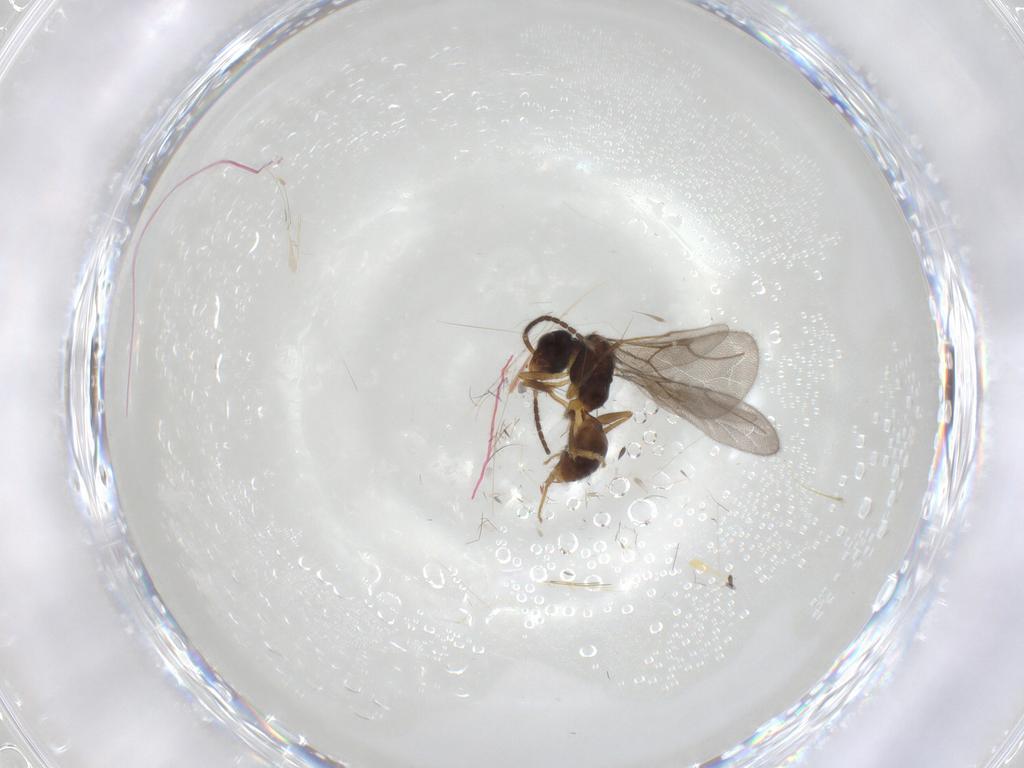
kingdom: Animalia
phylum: Arthropoda
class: Insecta
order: Hymenoptera
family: Bethylidae
